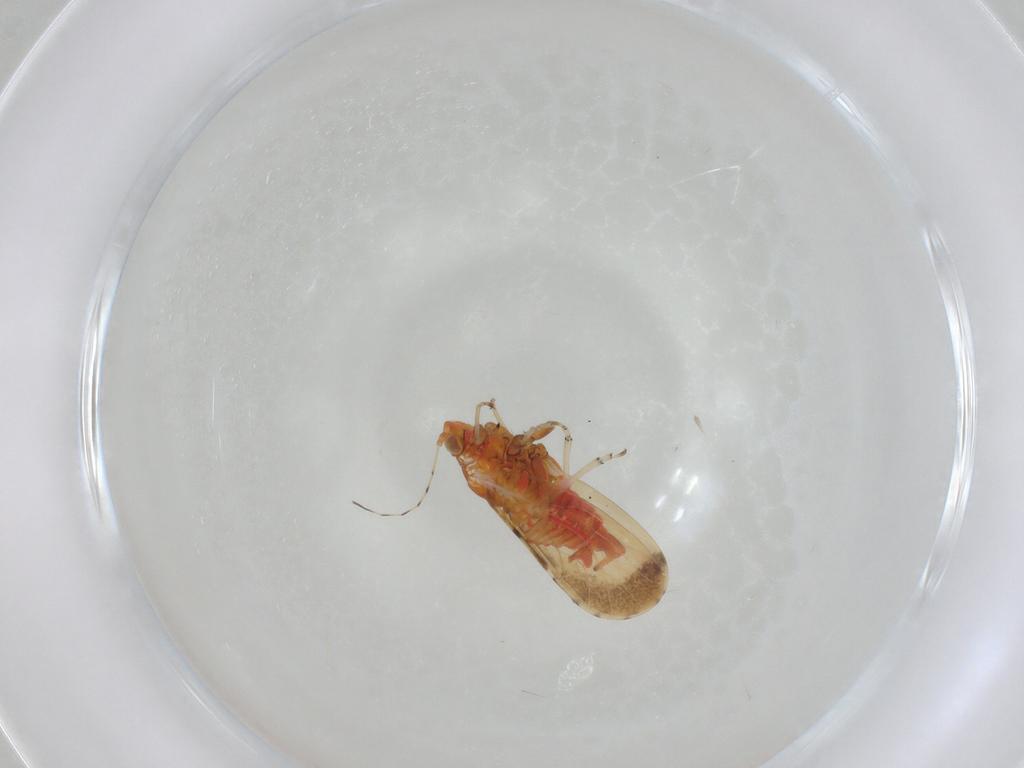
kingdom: Animalia
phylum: Arthropoda
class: Insecta
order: Hemiptera
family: Psyllidae
